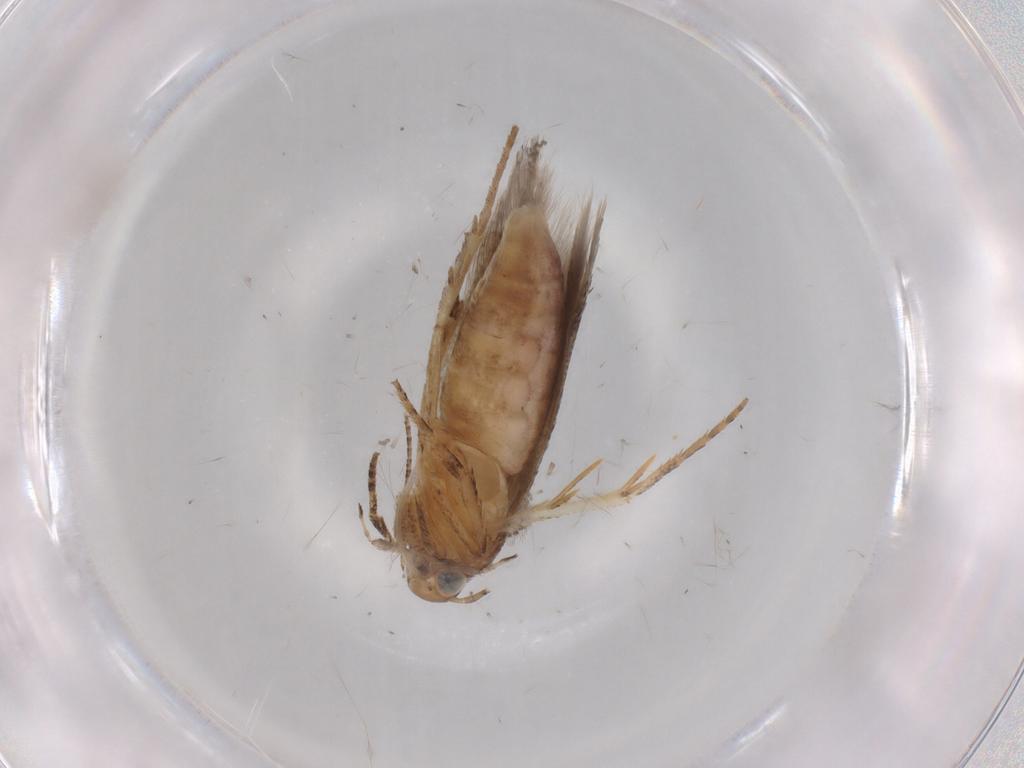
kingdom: Animalia
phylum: Arthropoda
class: Insecta
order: Lepidoptera
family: Gelechiidae
